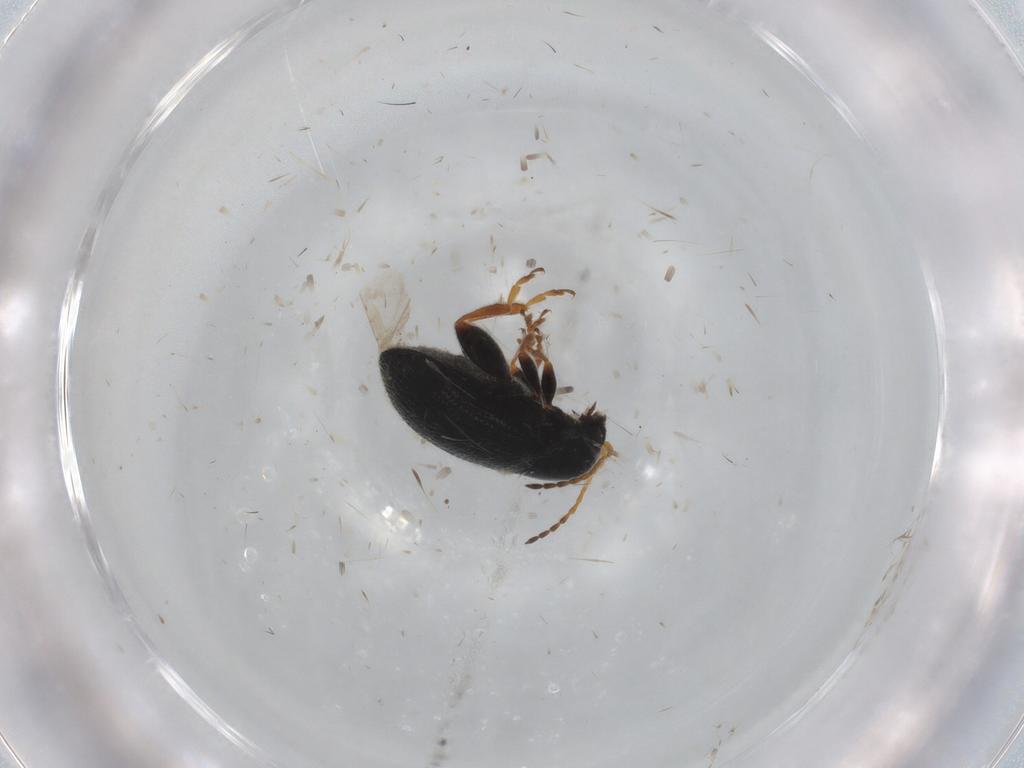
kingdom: Animalia
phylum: Arthropoda
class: Insecta
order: Coleoptera
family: Chrysomelidae
